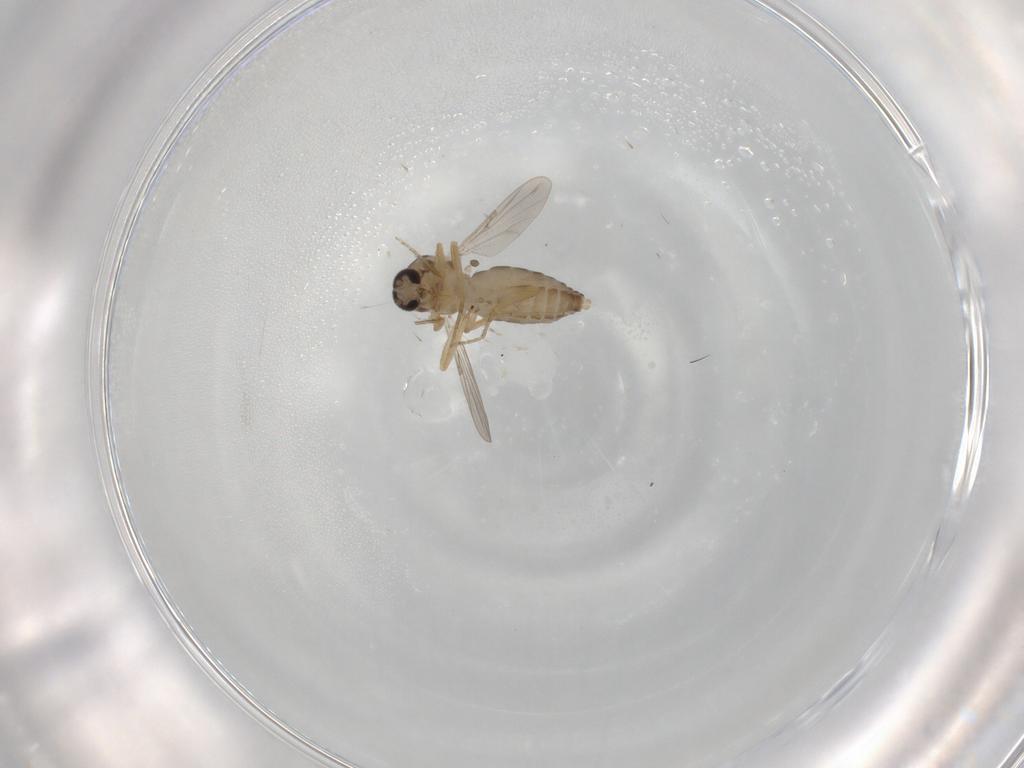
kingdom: Animalia
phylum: Arthropoda
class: Insecta
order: Diptera
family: Ceratopogonidae
